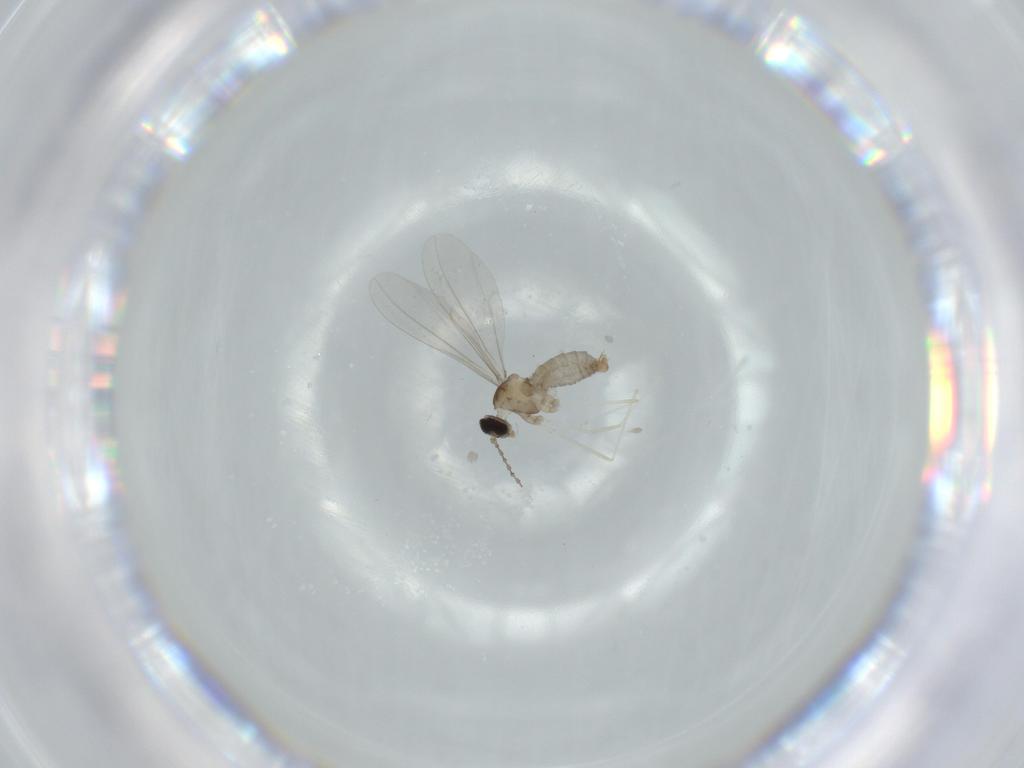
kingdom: Animalia
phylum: Arthropoda
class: Insecta
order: Diptera
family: Cecidomyiidae
